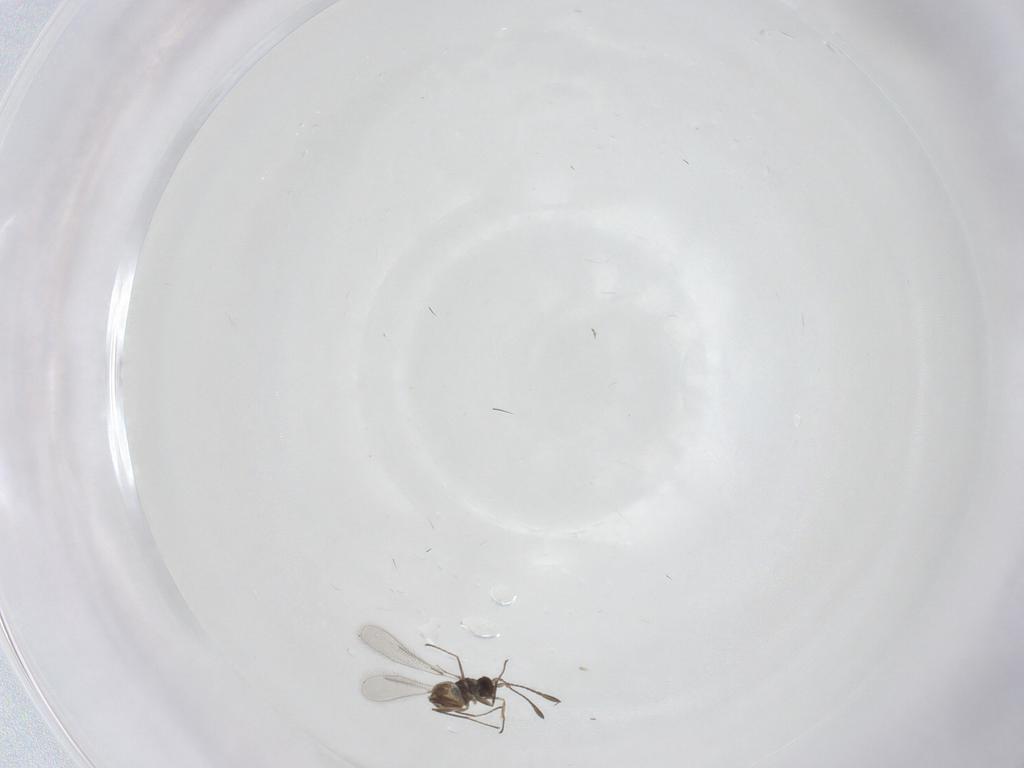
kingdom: Animalia
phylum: Arthropoda
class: Insecta
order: Hymenoptera
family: Mymaridae
